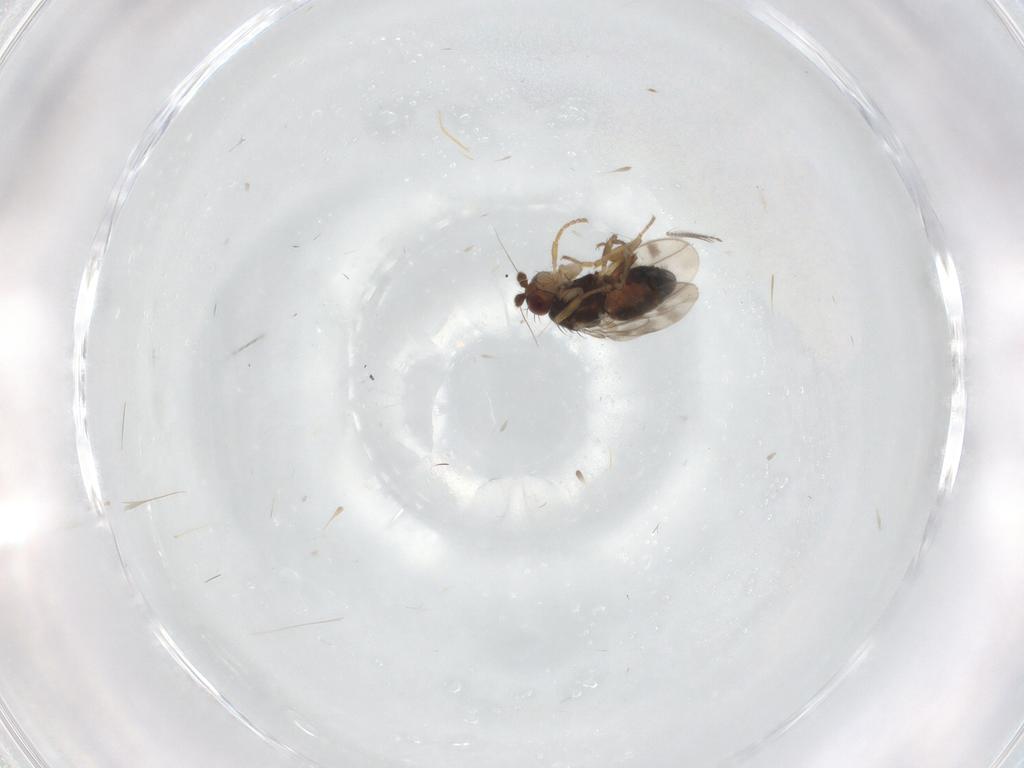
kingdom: Animalia
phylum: Arthropoda
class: Insecta
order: Diptera
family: Sphaeroceridae
